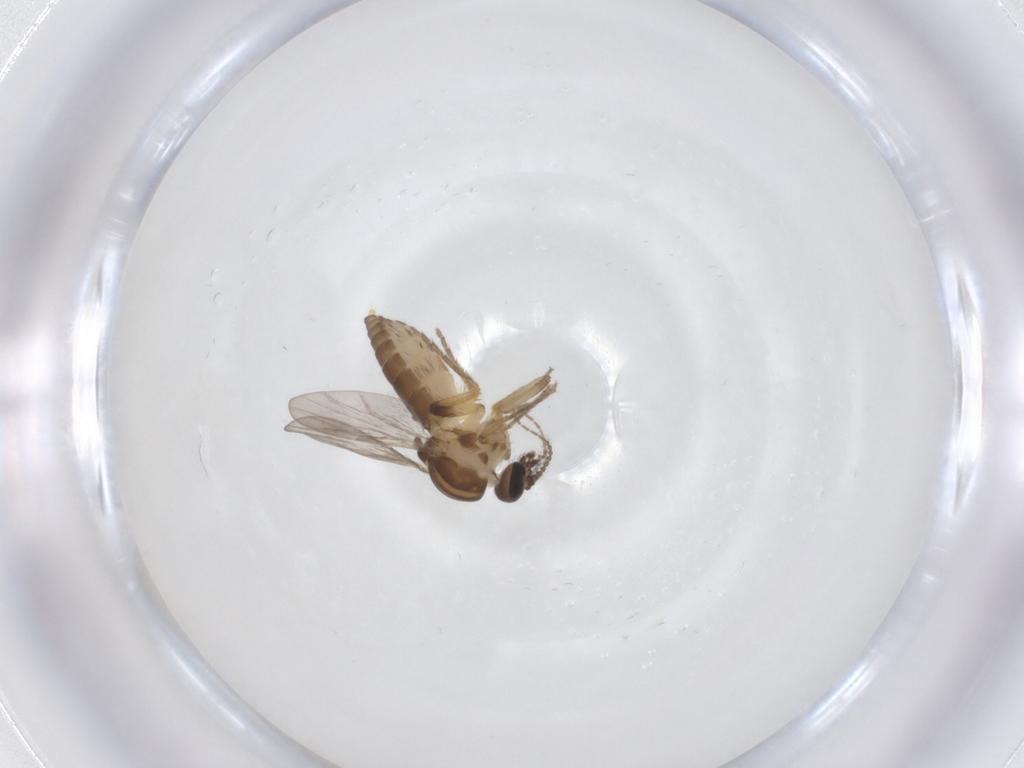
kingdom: Animalia
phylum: Arthropoda
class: Insecta
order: Diptera
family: Ceratopogonidae
